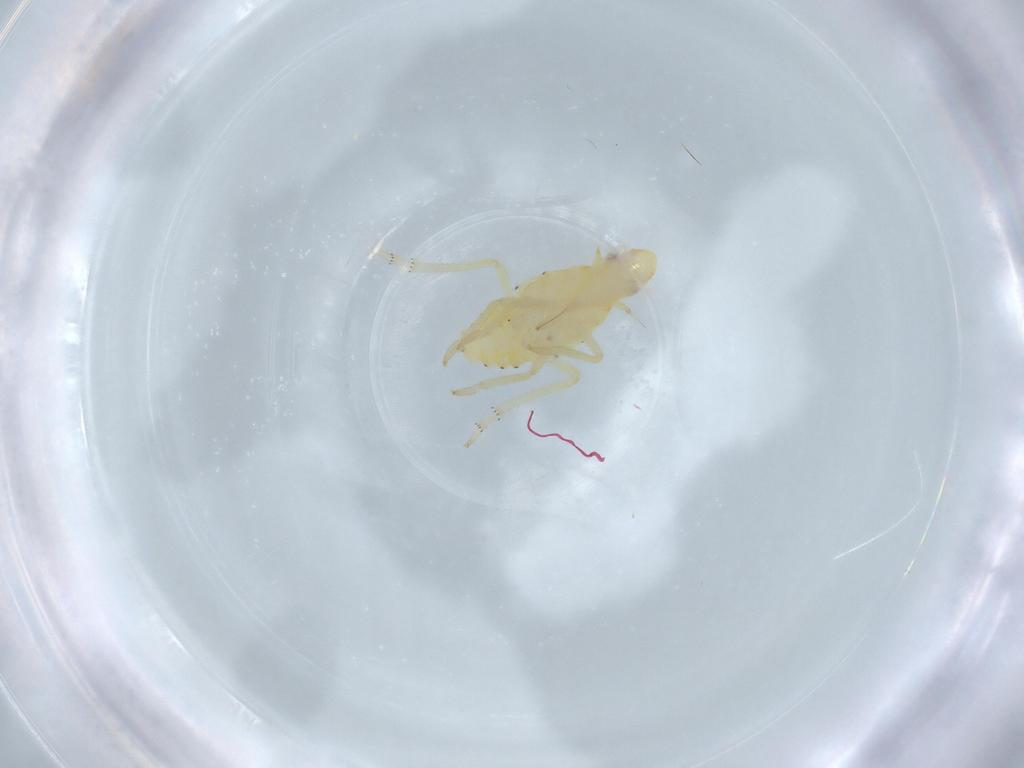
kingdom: Animalia
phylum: Arthropoda
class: Insecta
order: Hemiptera
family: Tropiduchidae
